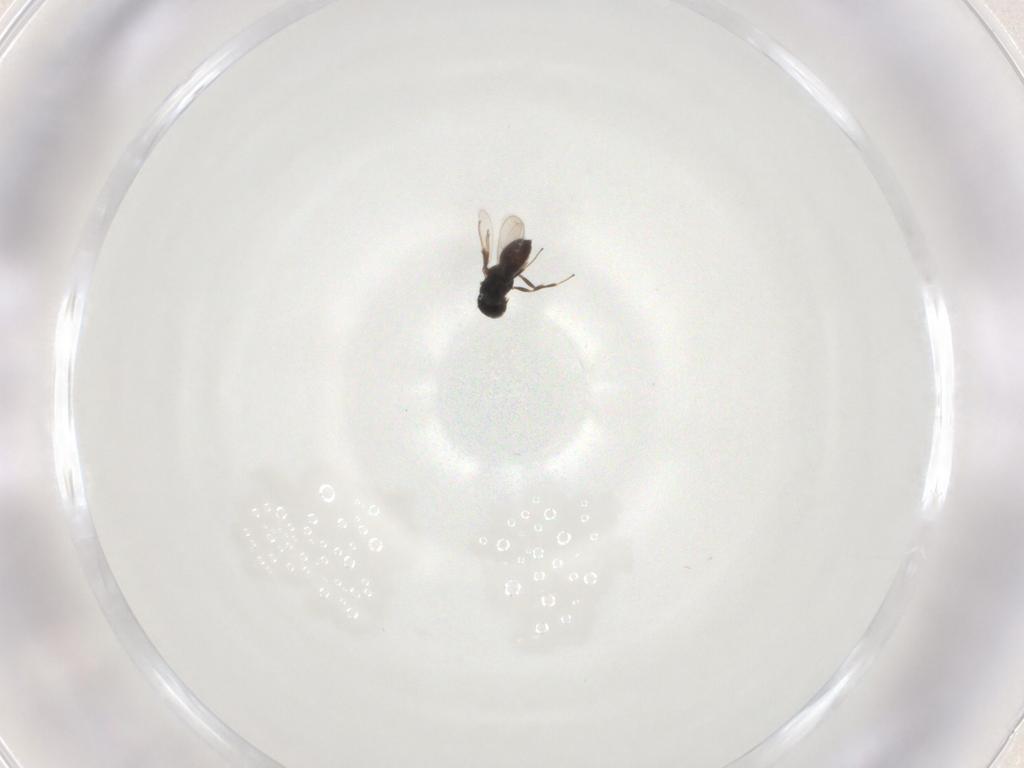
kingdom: Animalia
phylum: Arthropoda
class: Insecta
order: Hymenoptera
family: Scelionidae
